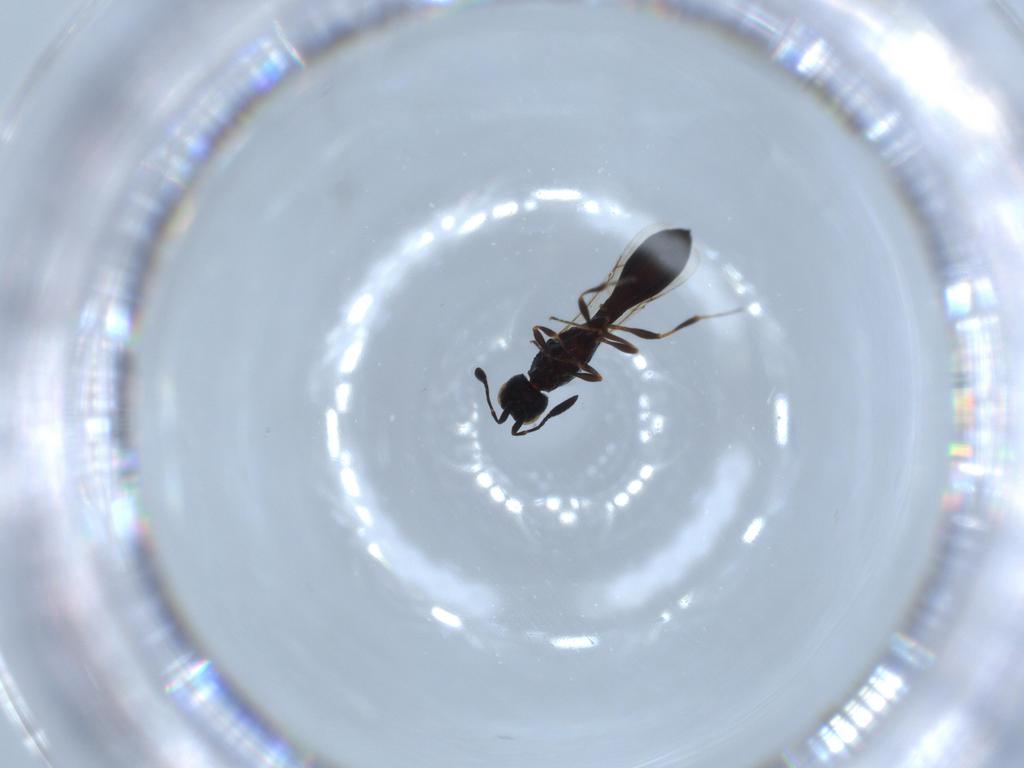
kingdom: Animalia
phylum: Arthropoda
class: Insecta
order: Hymenoptera
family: Scelionidae
